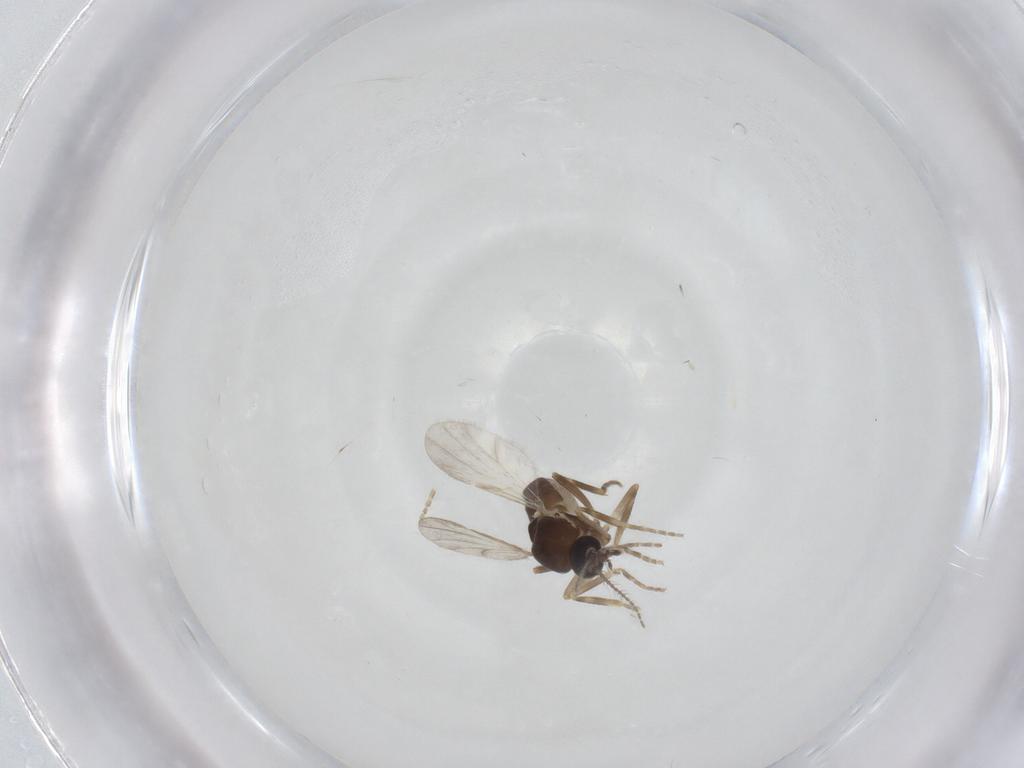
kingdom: Animalia
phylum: Arthropoda
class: Insecta
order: Diptera
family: Ceratopogonidae
